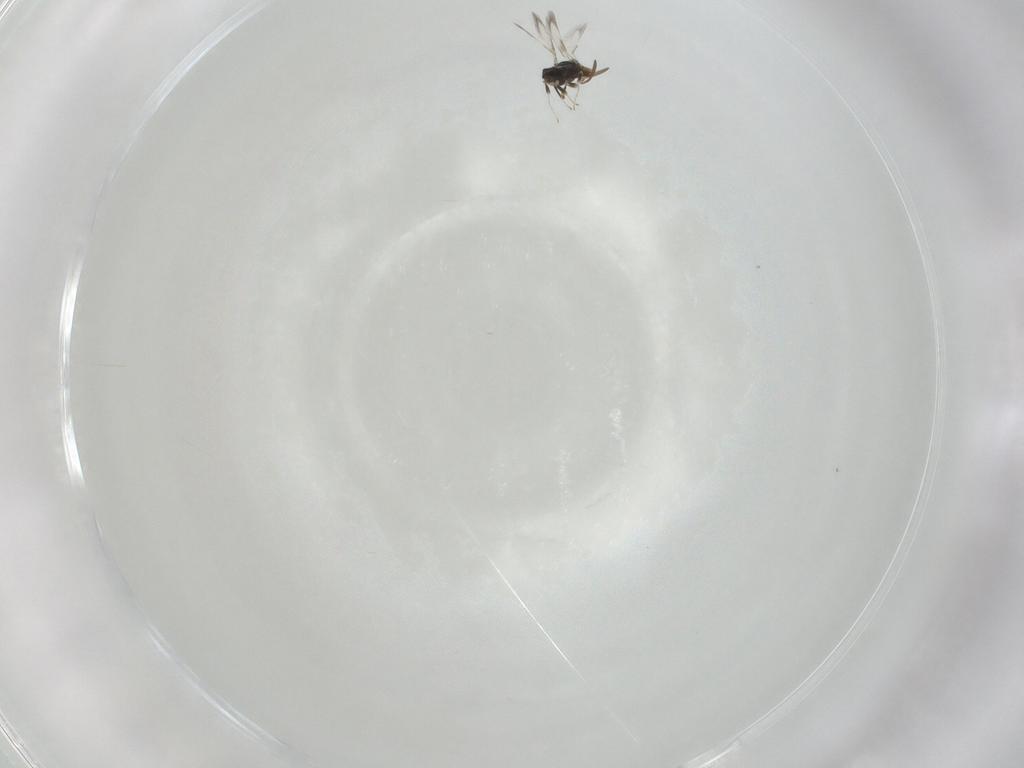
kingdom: Animalia
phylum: Arthropoda
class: Insecta
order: Hymenoptera
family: Signiphoridae
